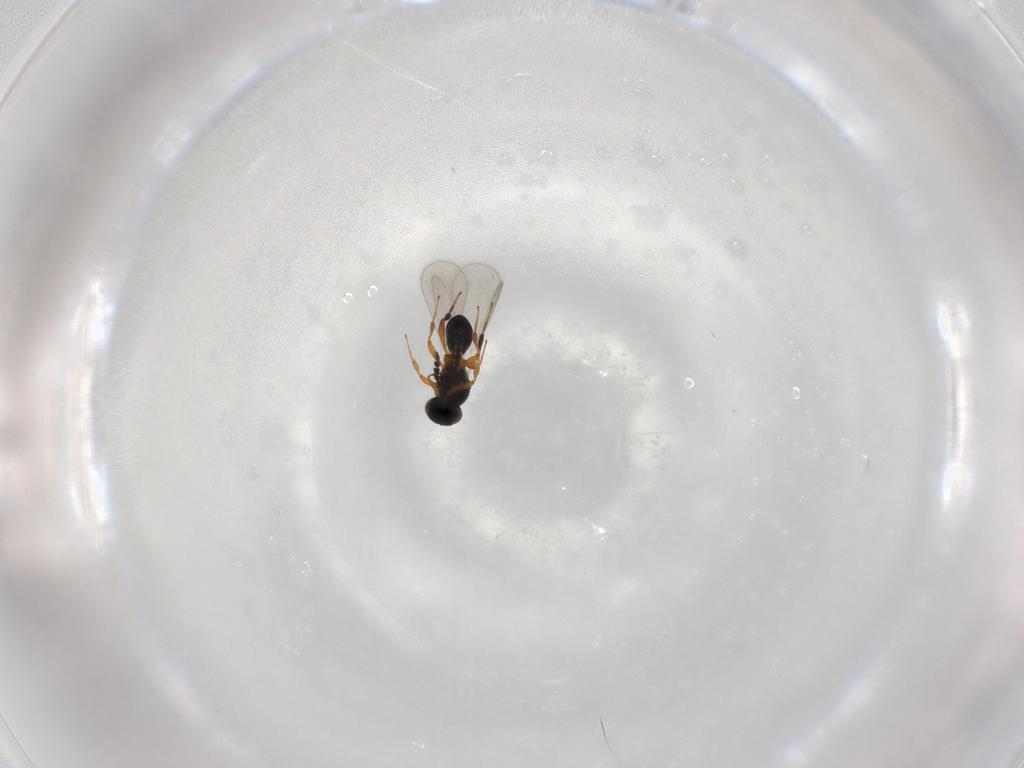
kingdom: Animalia
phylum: Arthropoda
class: Insecta
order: Hymenoptera
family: Platygastridae
